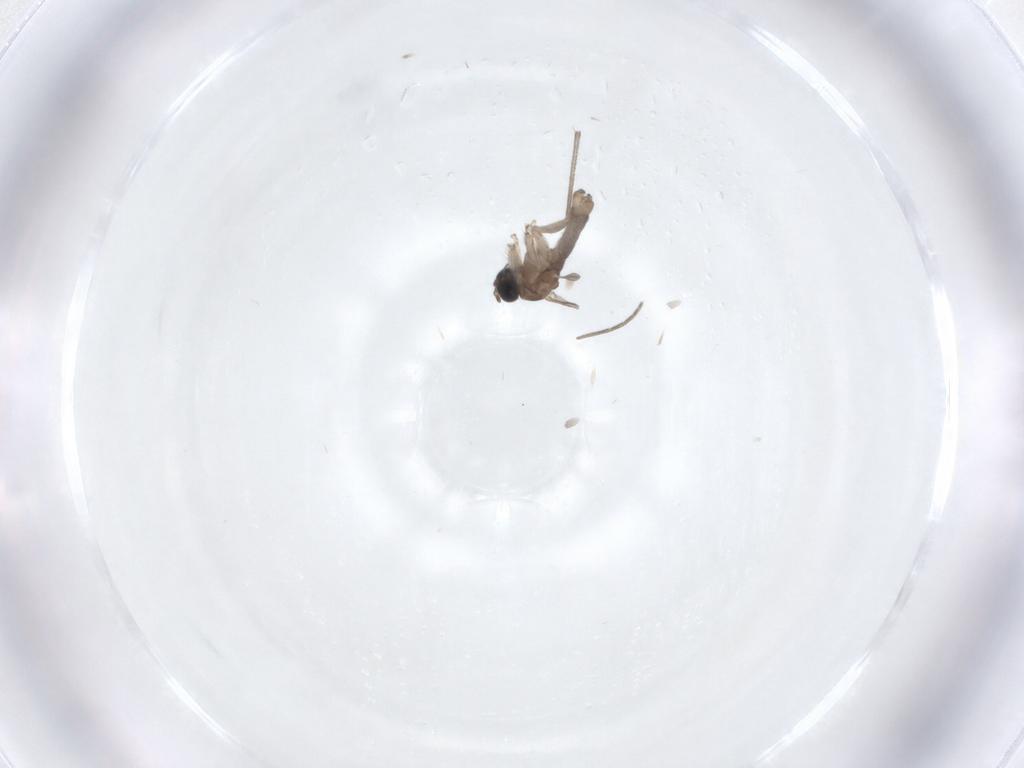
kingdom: Animalia
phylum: Arthropoda
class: Insecta
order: Diptera
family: Sciaridae
